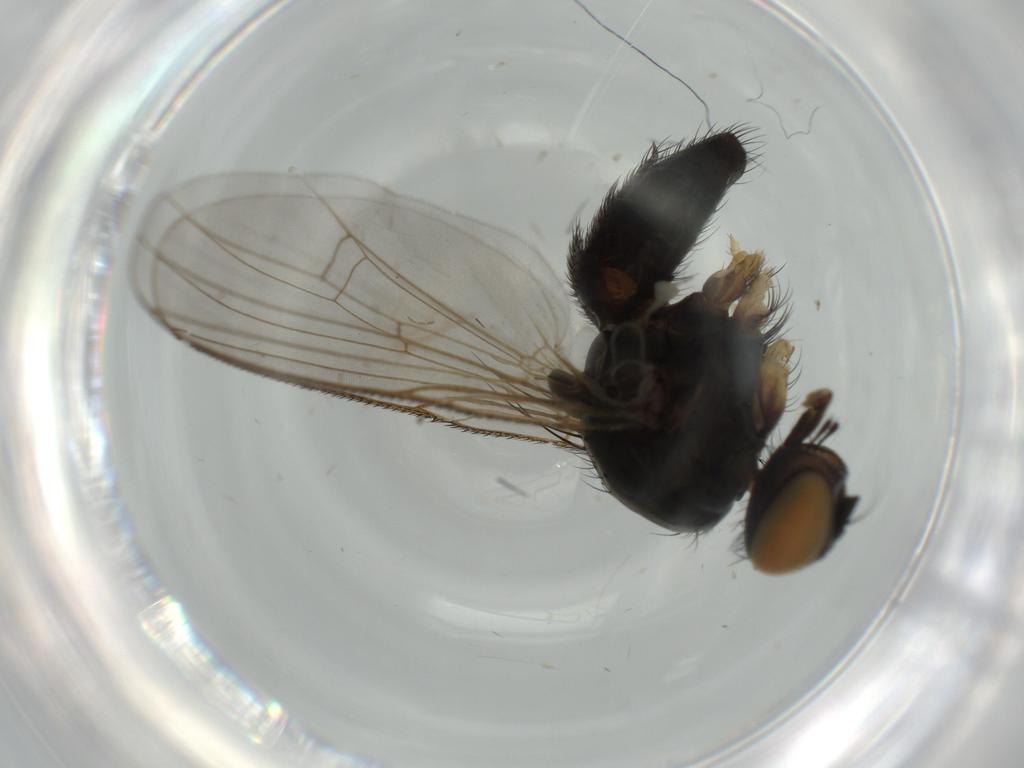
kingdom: Animalia
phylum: Arthropoda
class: Insecta
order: Diptera
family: Cecidomyiidae
